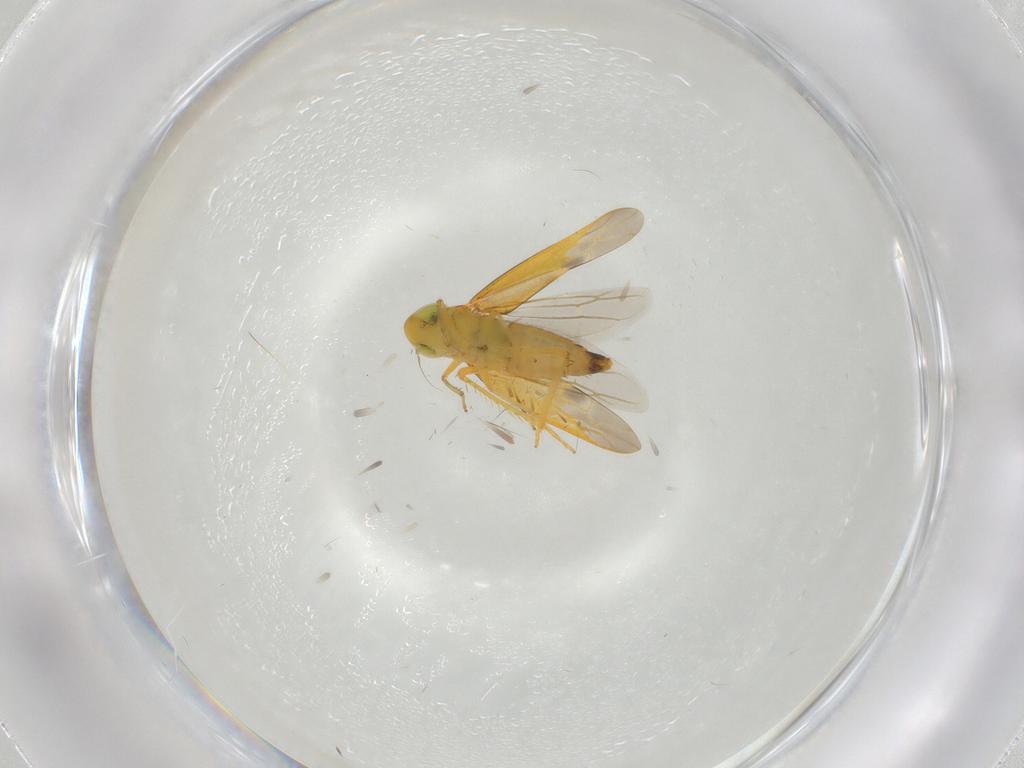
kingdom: Animalia
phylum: Arthropoda
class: Insecta
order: Hemiptera
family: Cicadellidae
